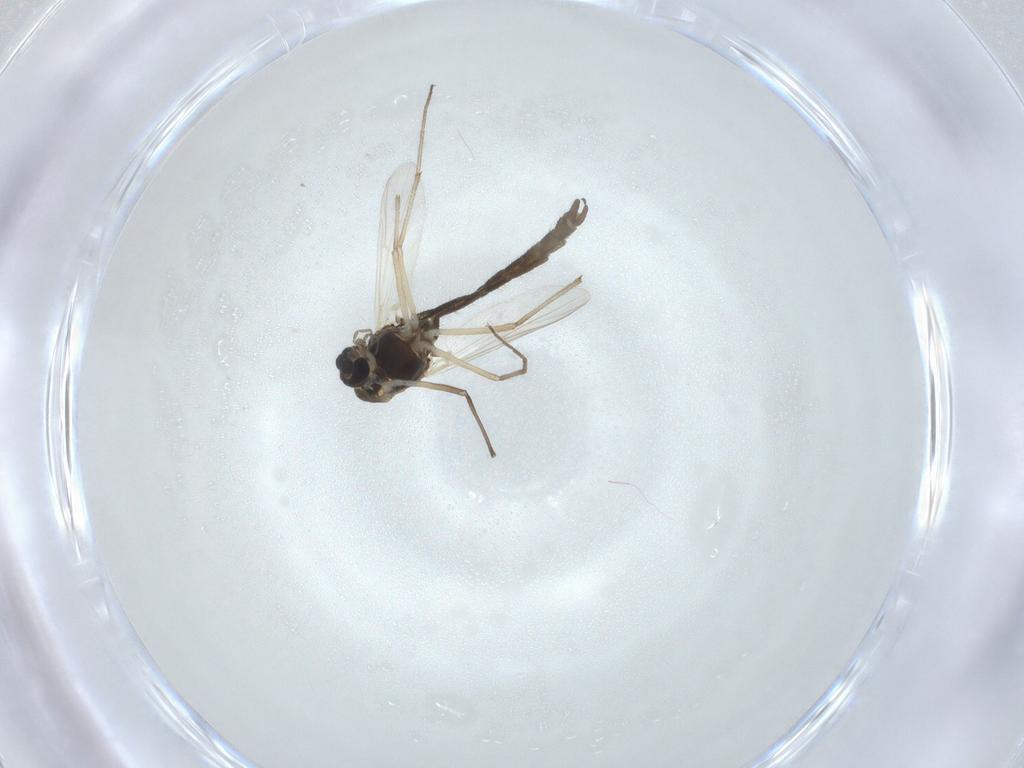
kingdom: Animalia
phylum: Arthropoda
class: Insecta
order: Diptera
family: Chironomidae
